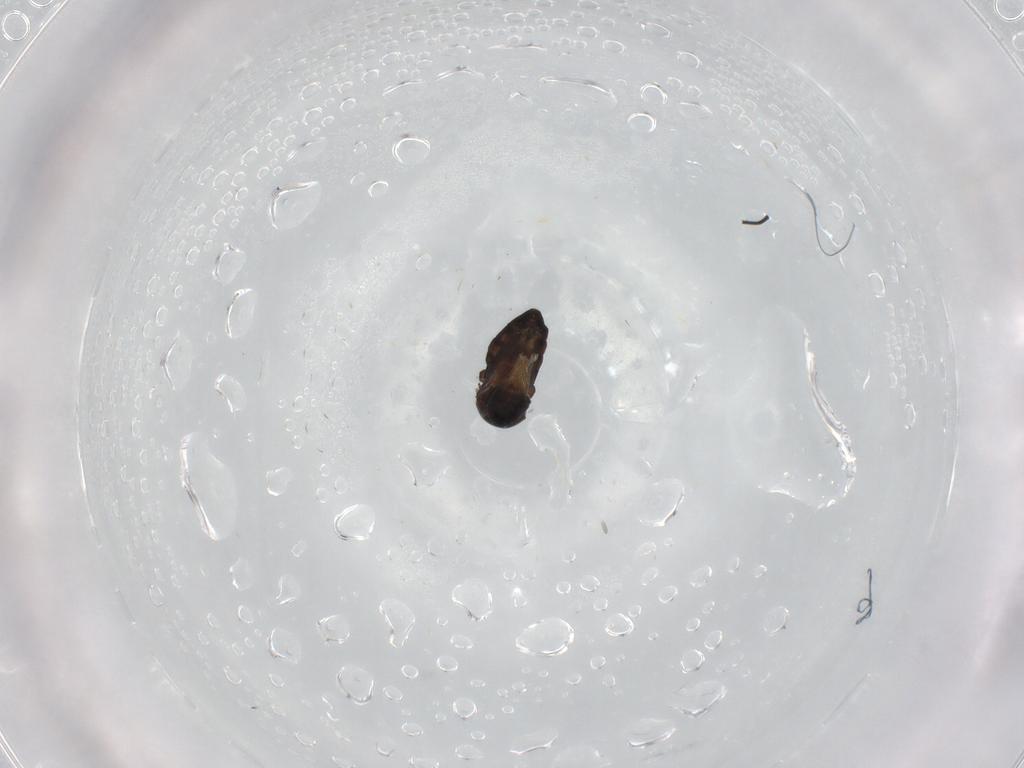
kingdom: Animalia
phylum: Arthropoda
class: Insecta
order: Diptera
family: Phoridae
